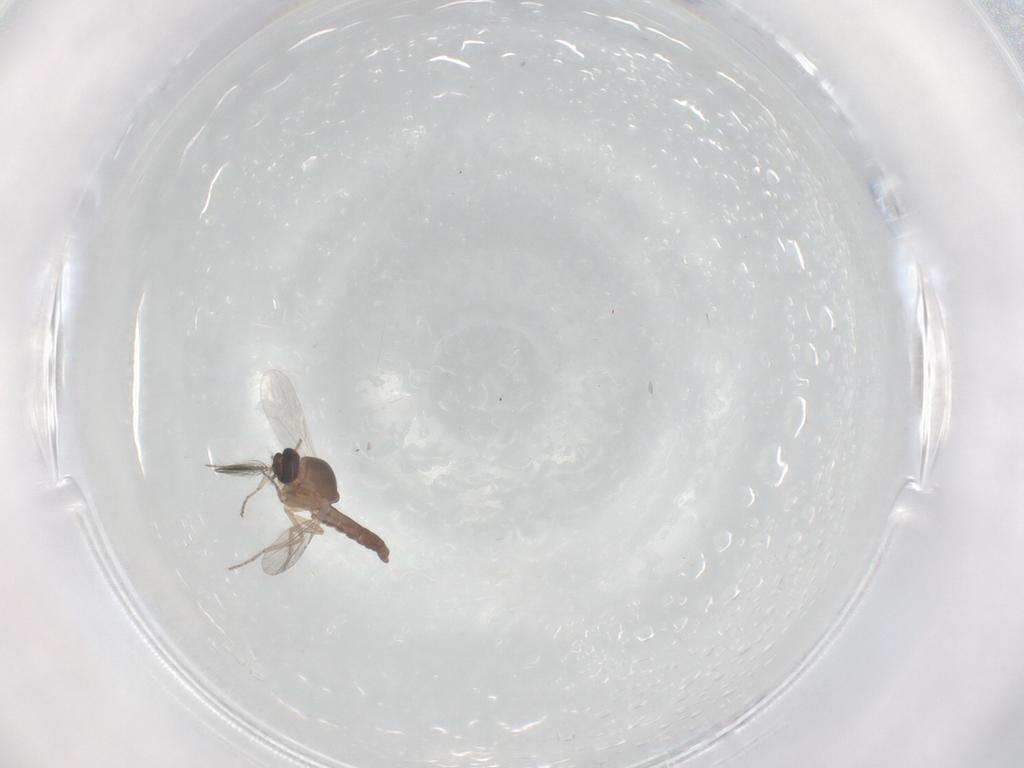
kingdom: Animalia
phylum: Arthropoda
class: Insecta
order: Diptera
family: Ceratopogonidae
